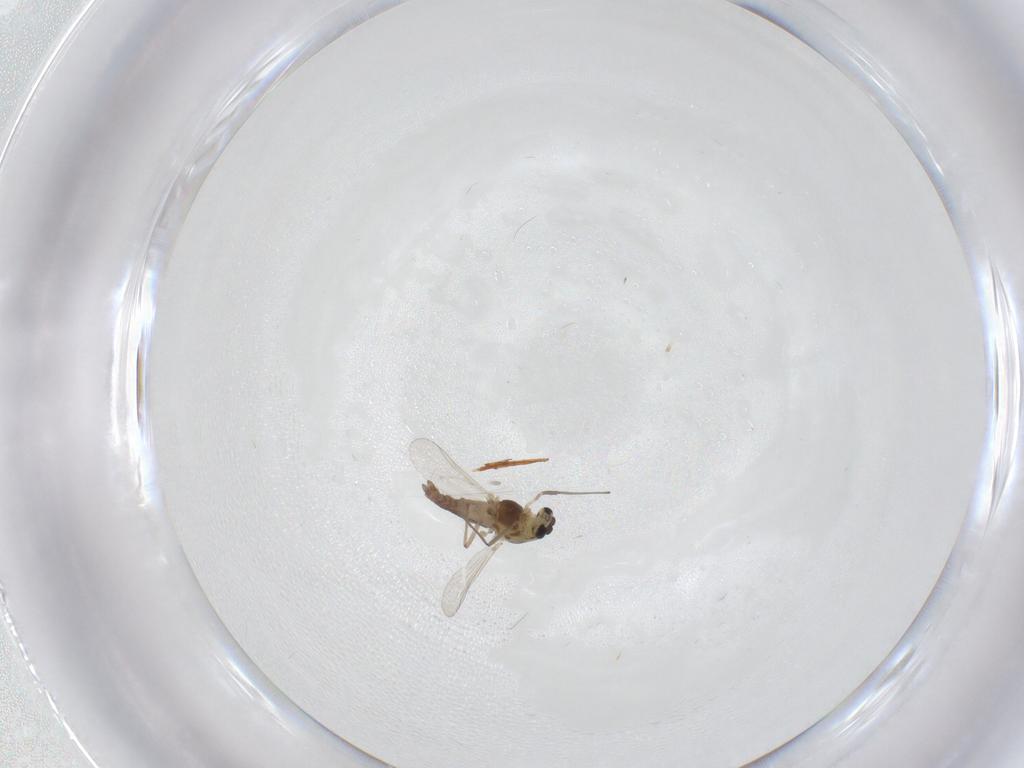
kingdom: Animalia
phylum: Arthropoda
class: Insecta
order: Diptera
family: Chironomidae
